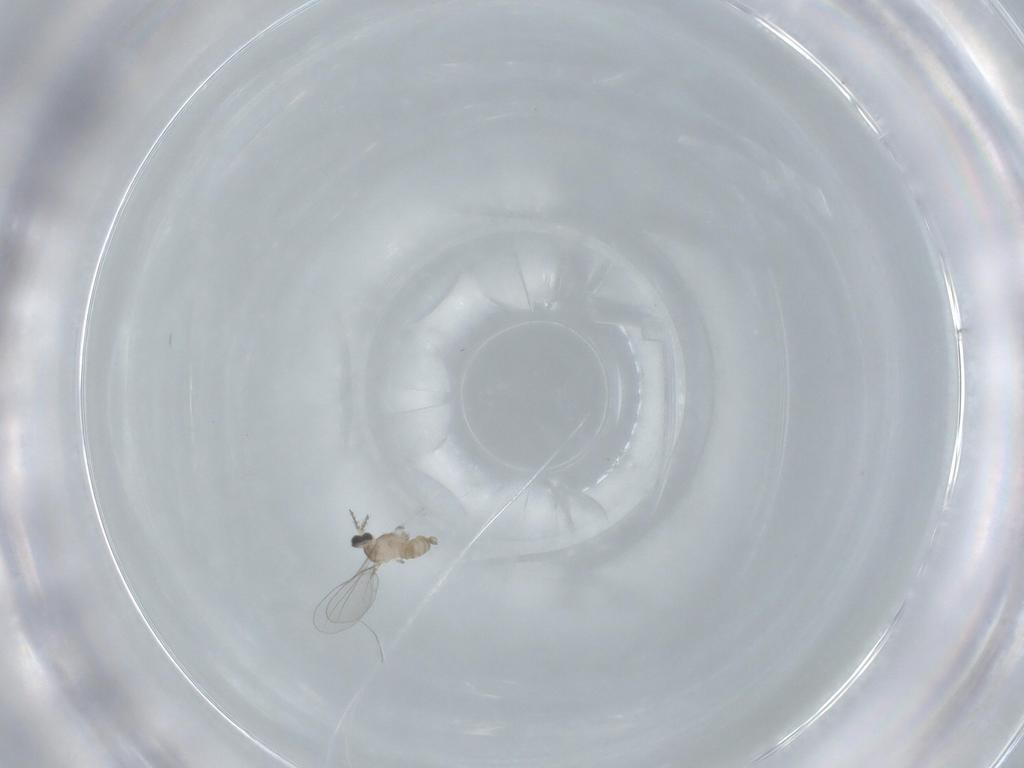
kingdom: Animalia
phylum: Arthropoda
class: Insecta
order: Diptera
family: Cecidomyiidae
